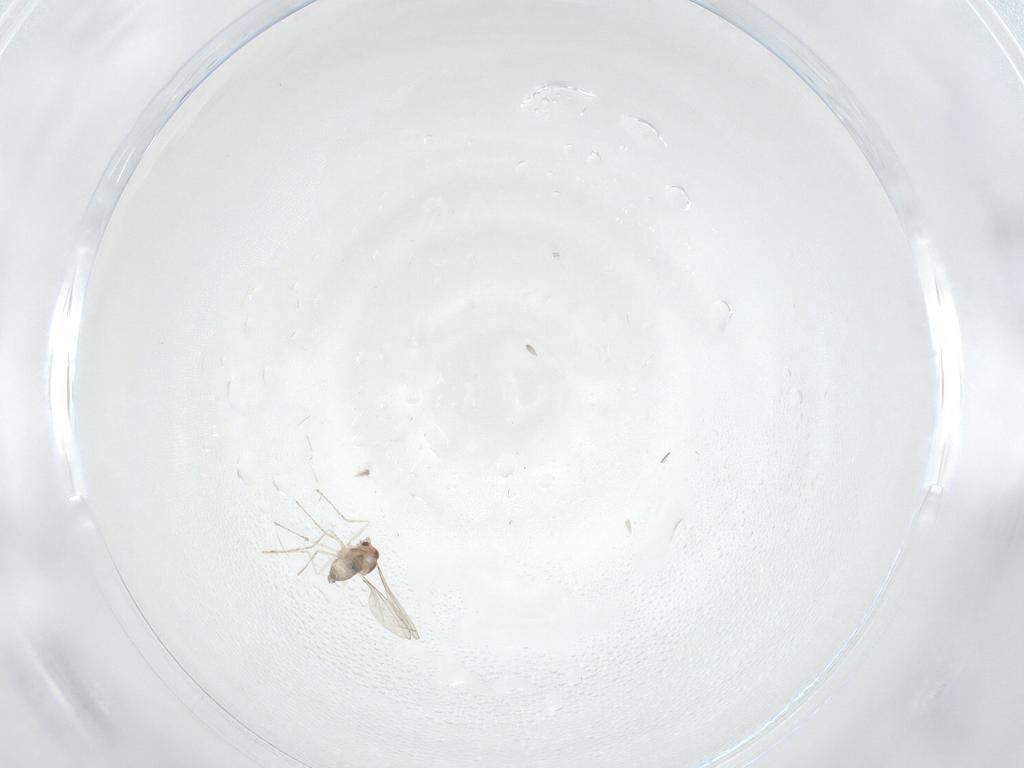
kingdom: Animalia
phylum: Arthropoda
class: Insecta
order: Diptera
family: Cecidomyiidae
